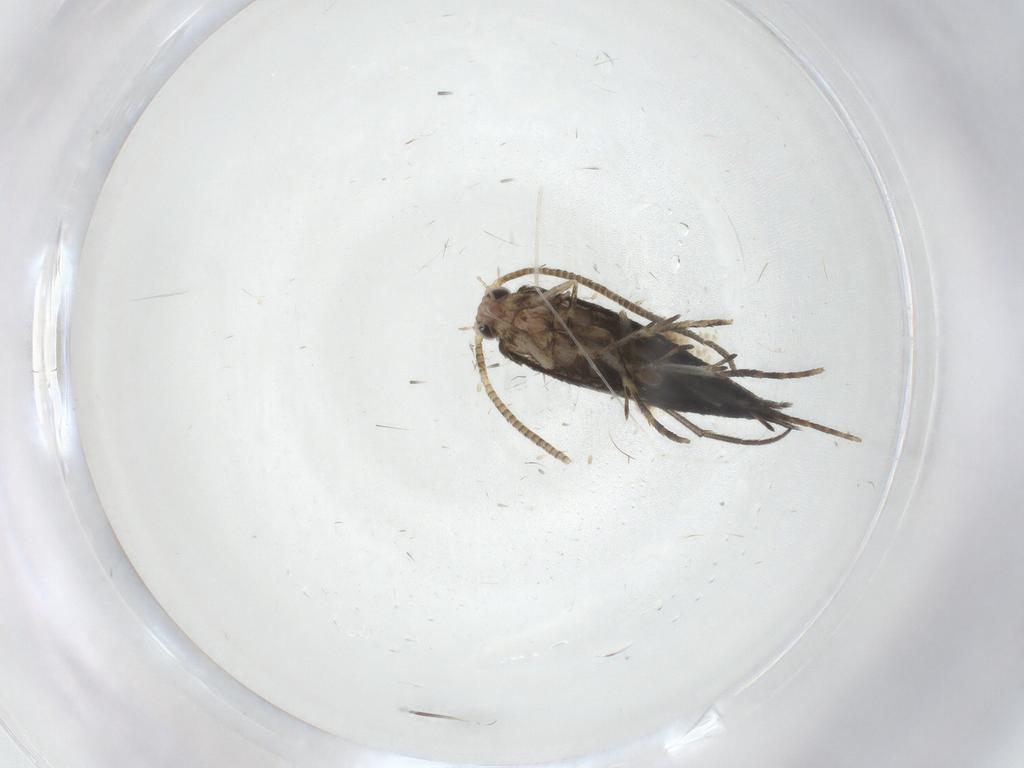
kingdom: Animalia
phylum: Arthropoda
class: Insecta
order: Lepidoptera
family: Tineidae
